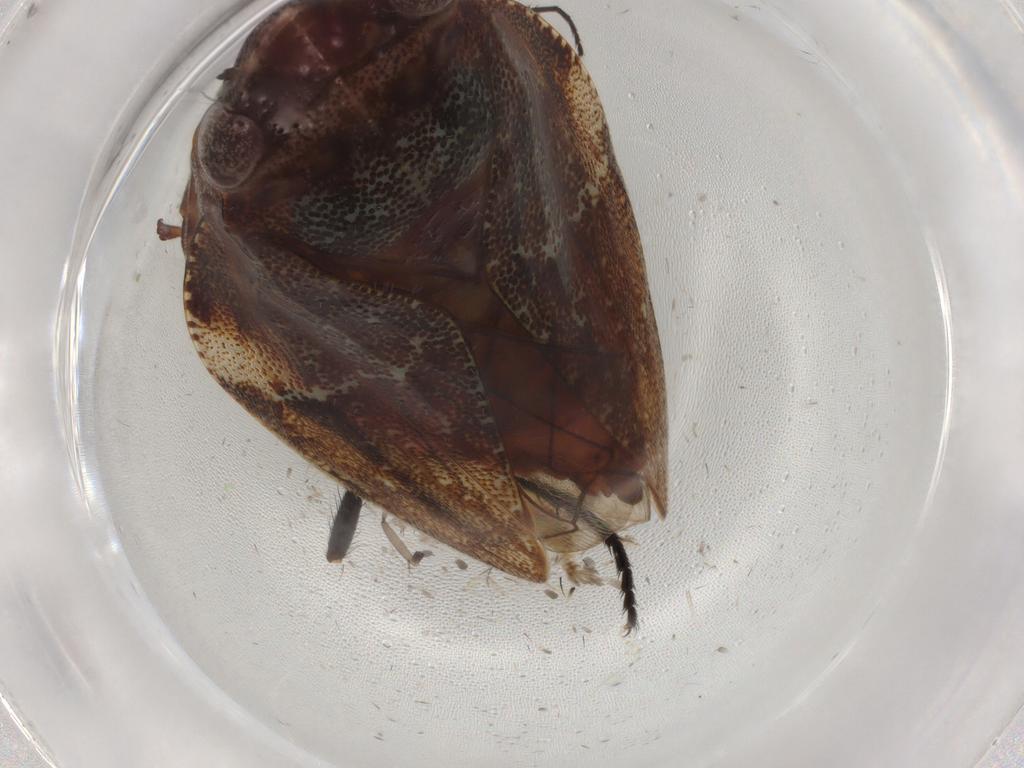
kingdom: Animalia
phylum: Arthropoda
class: Insecta
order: Hemiptera
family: Aphrophoridae
